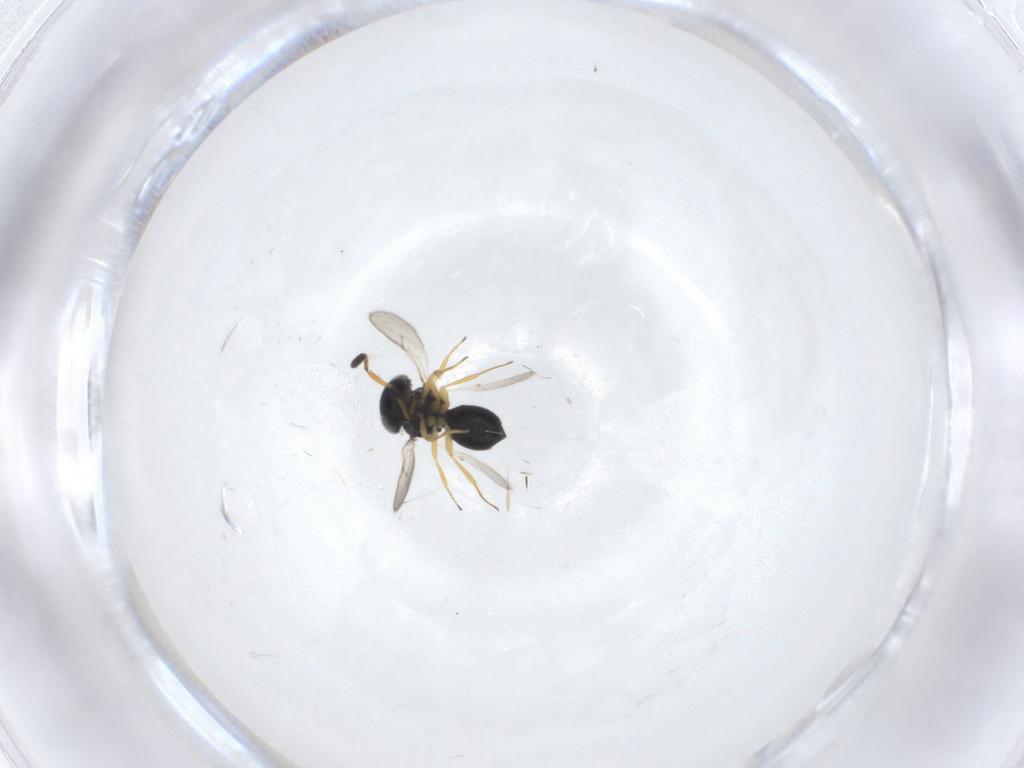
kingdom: Animalia
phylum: Arthropoda
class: Insecta
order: Hymenoptera
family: Scelionidae
